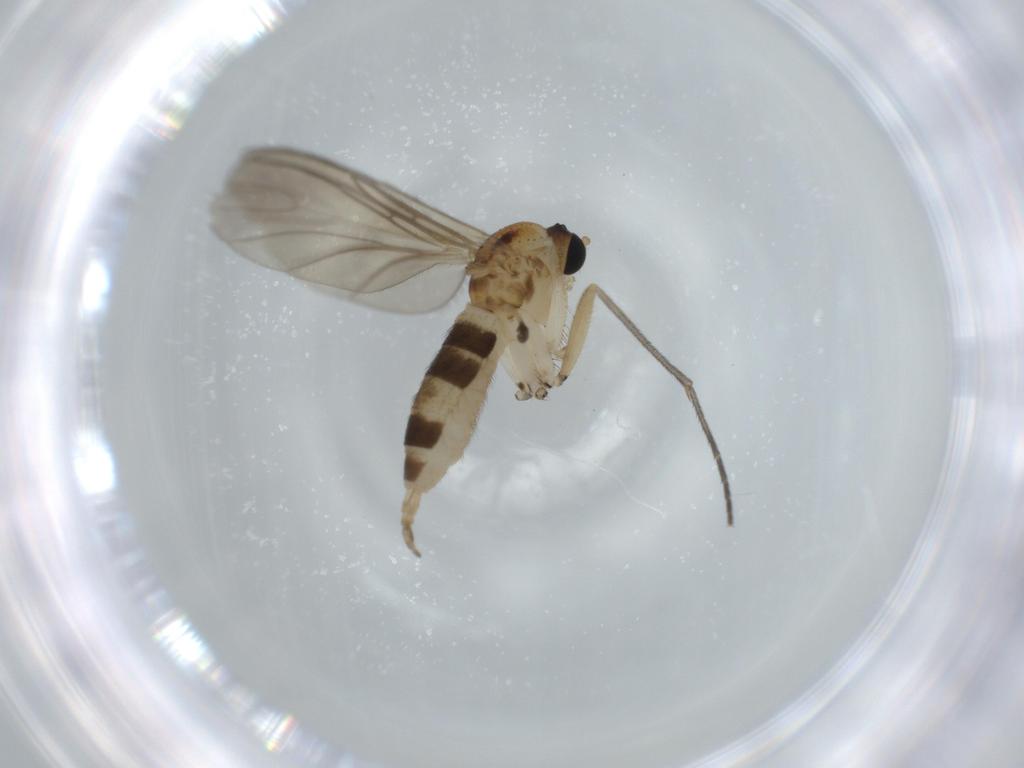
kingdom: Animalia
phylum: Arthropoda
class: Insecta
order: Diptera
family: Sciaridae
